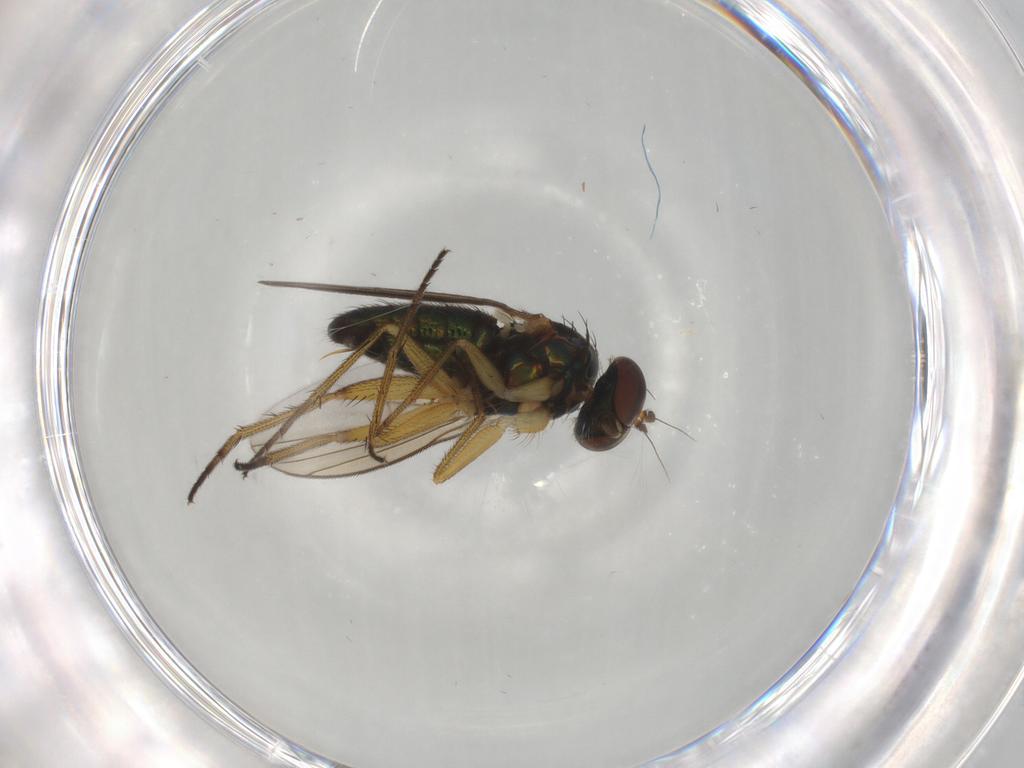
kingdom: Animalia
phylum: Arthropoda
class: Insecta
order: Diptera
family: Dolichopodidae
